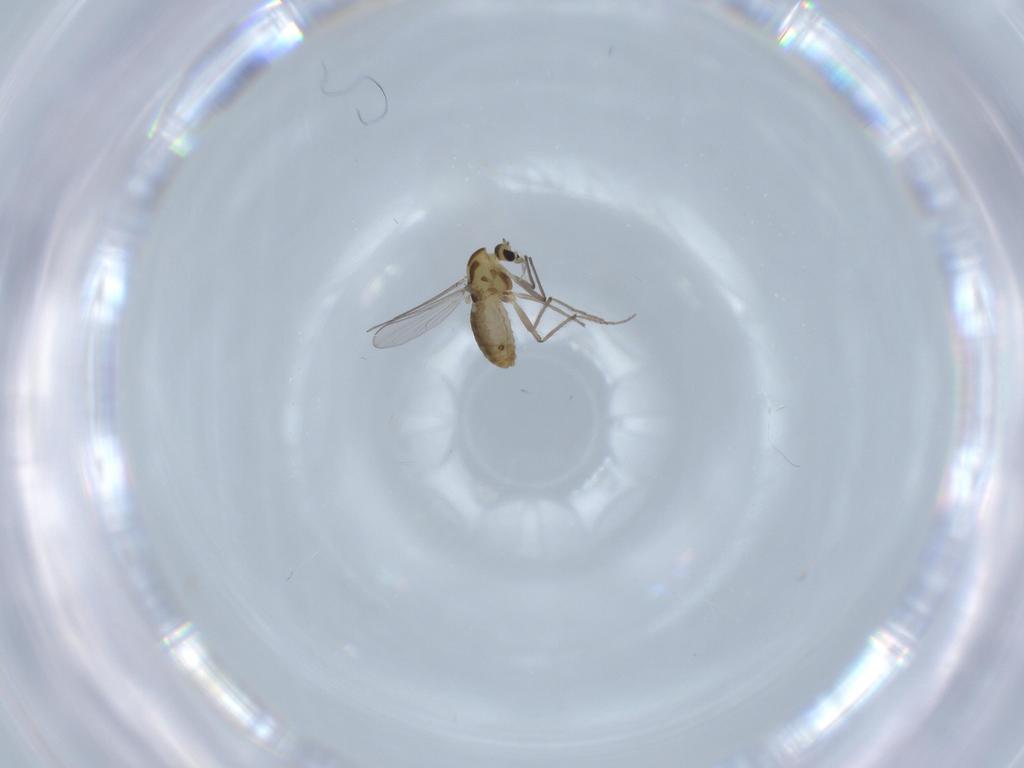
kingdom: Animalia
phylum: Arthropoda
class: Insecta
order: Diptera
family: Chironomidae
